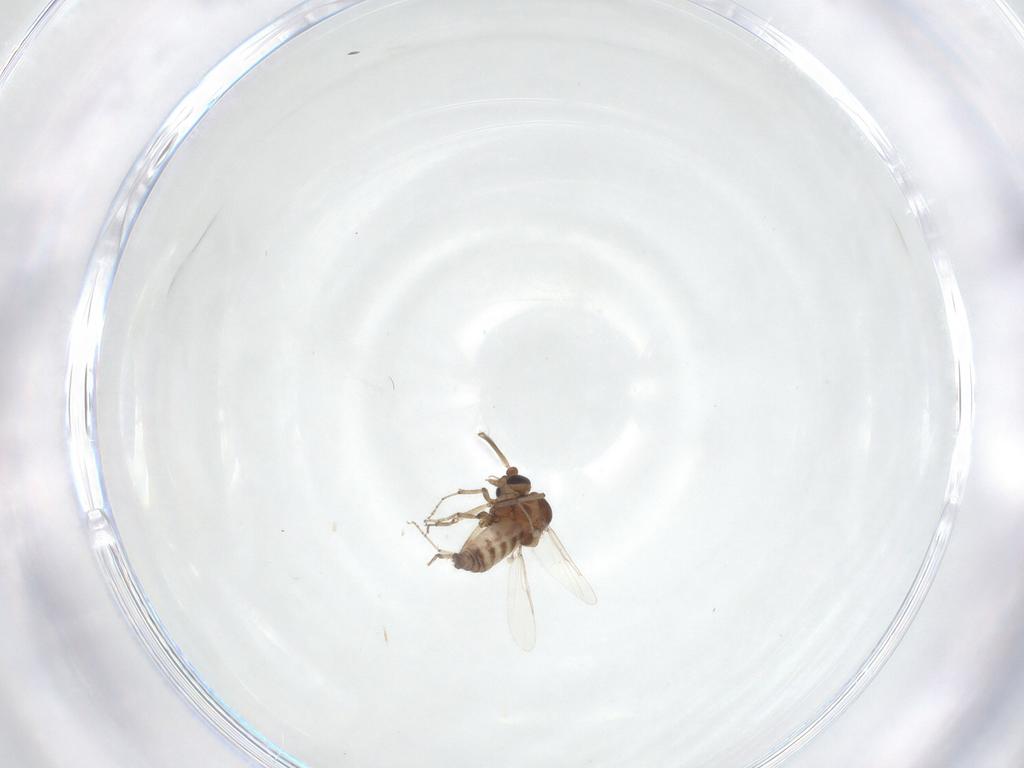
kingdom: Animalia
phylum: Arthropoda
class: Insecta
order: Diptera
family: Ceratopogonidae
